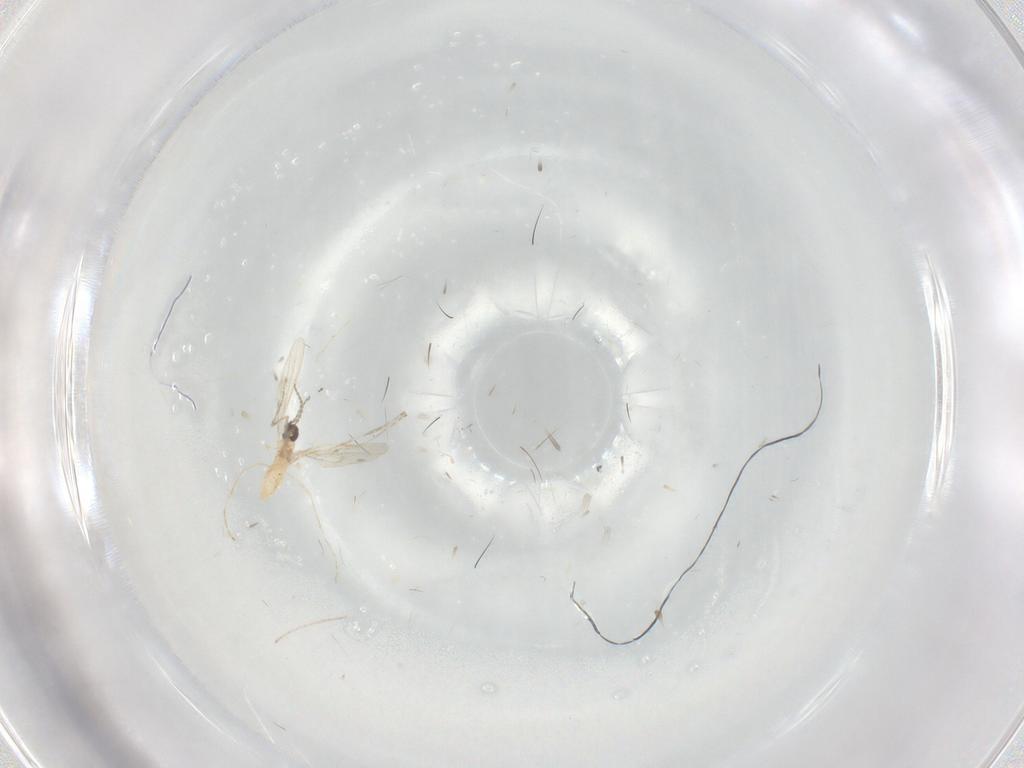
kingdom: Animalia
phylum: Arthropoda
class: Insecta
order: Diptera
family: Cecidomyiidae
